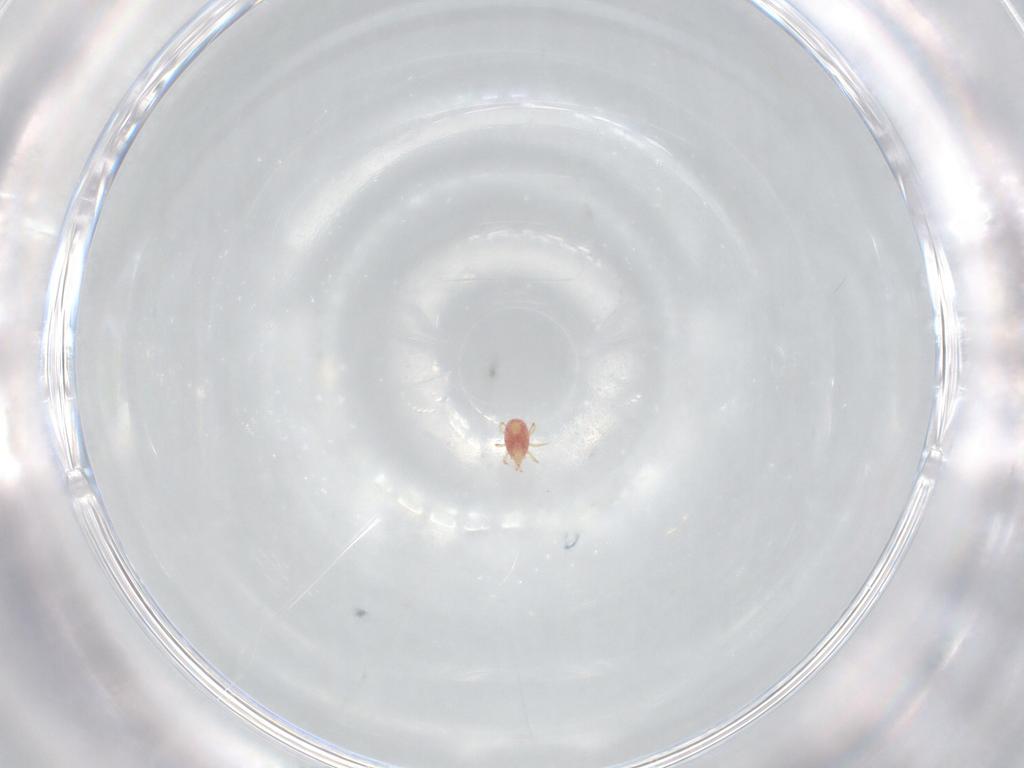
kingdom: Animalia
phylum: Arthropoda
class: Arachnida
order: Mesostigmata
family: Phytoseiidae
